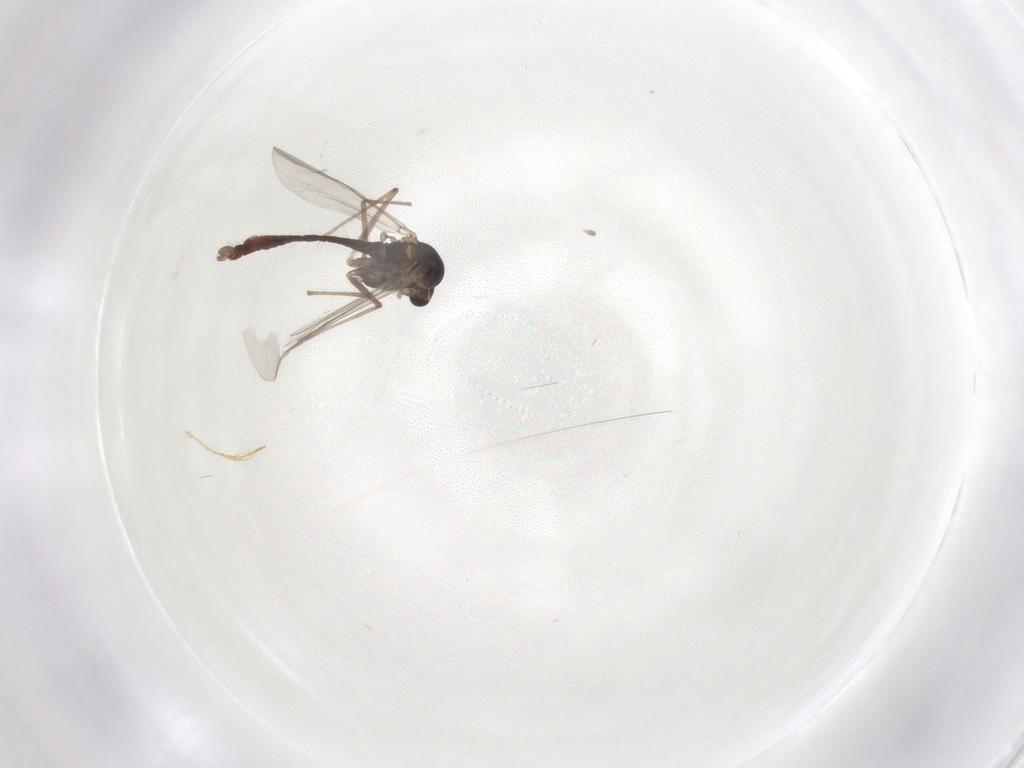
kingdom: Animalia
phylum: Arthropoda
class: Insecta
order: Diptera
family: Chironomidae
